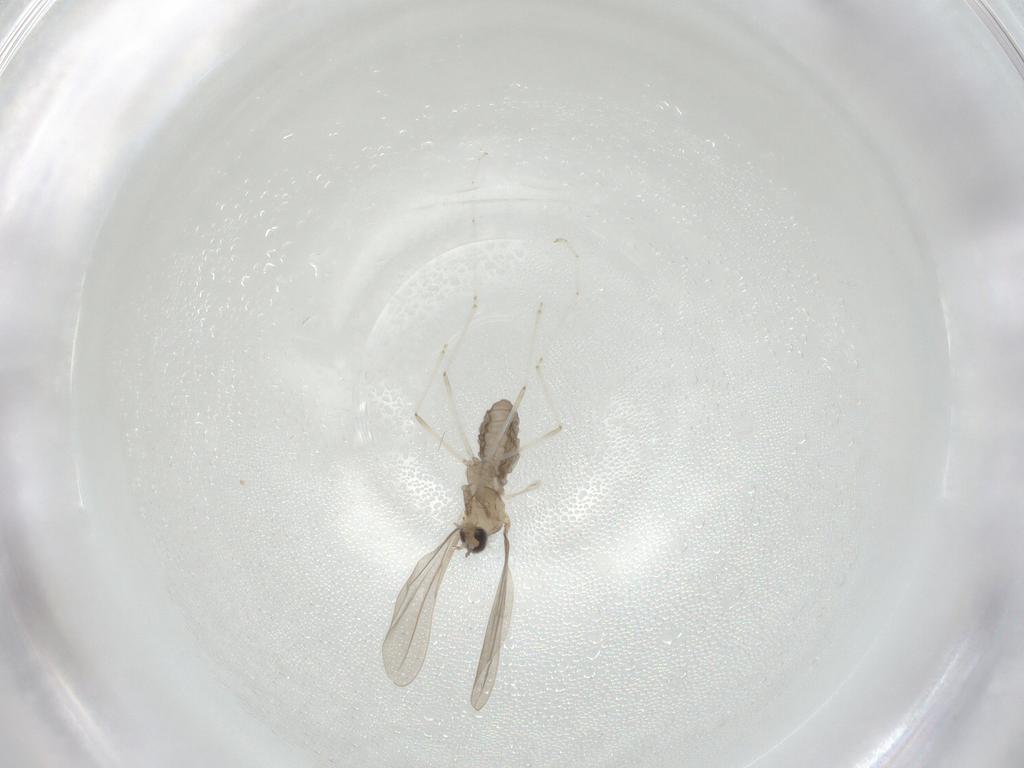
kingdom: Animalia
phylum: Arthropoda
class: Insecta
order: Diptera
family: Cecidomyiidae
